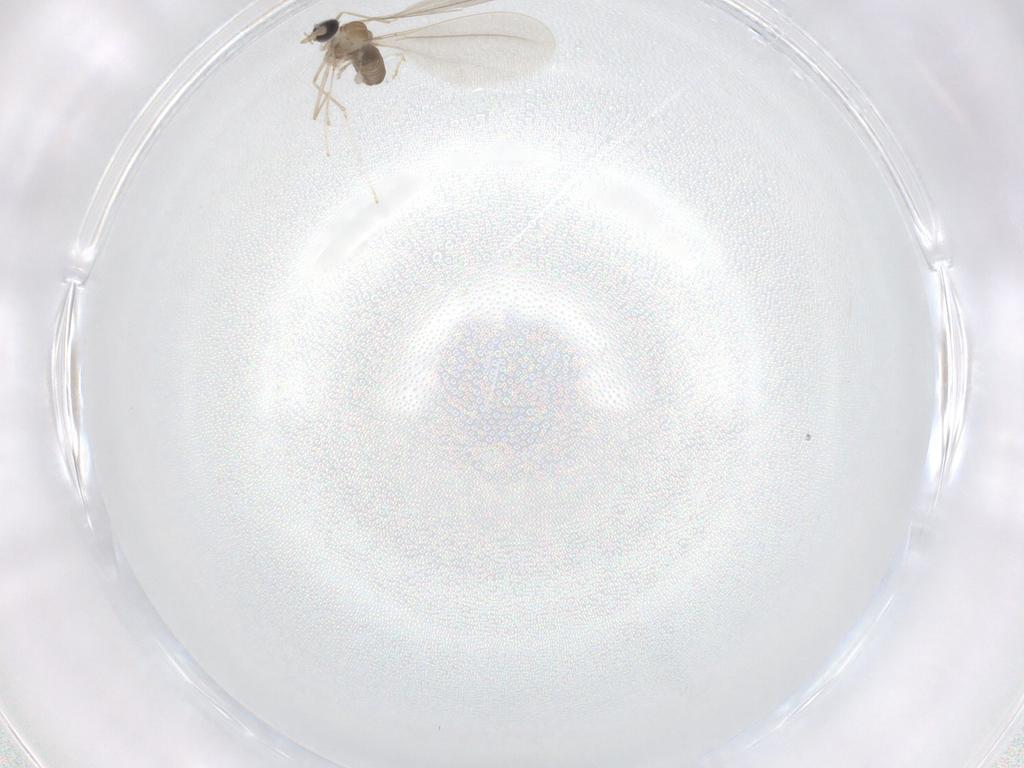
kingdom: Animalia
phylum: Arthropoda
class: Insecta
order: Diptera
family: Cecidomyiidae
